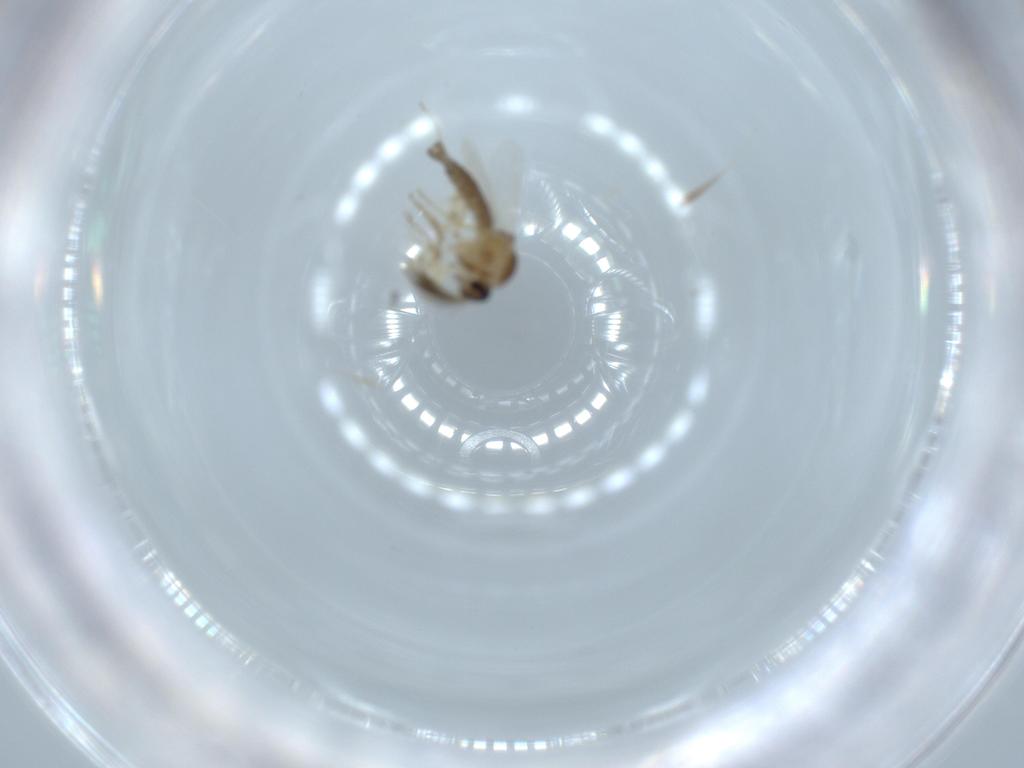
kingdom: Animalia
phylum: Arthropoda
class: Insecta
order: Diptera
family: Ceratopogonidae
